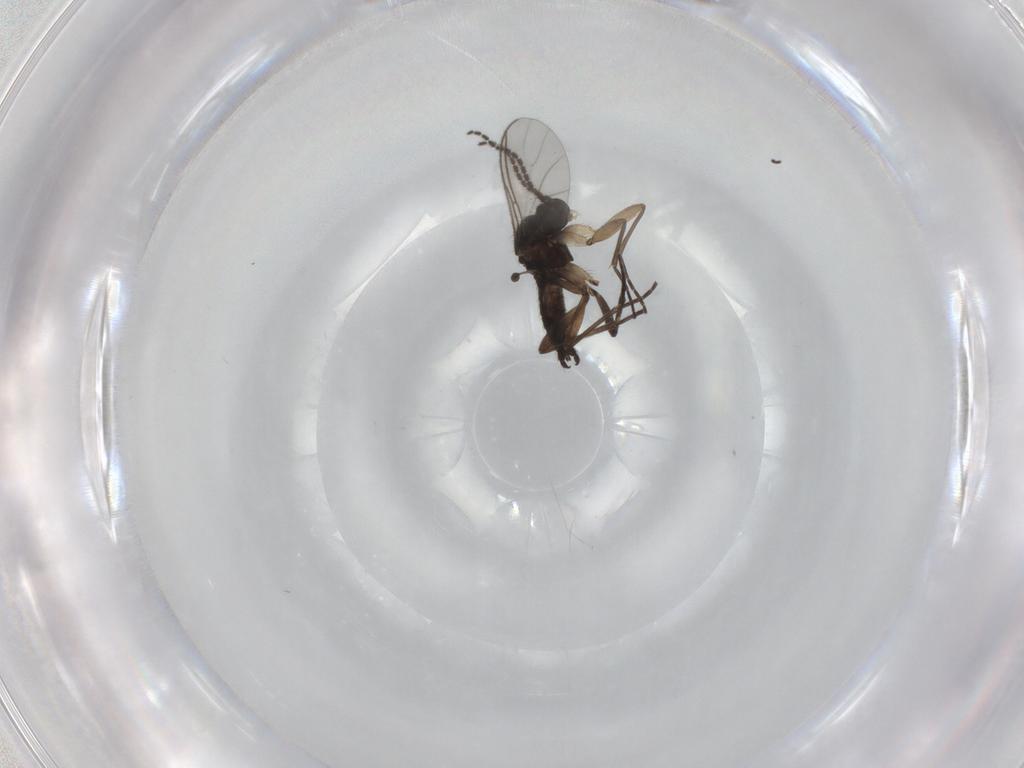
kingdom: Animalia
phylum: Arthropoda
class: Insecta
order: Diptera
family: Sciaridae
